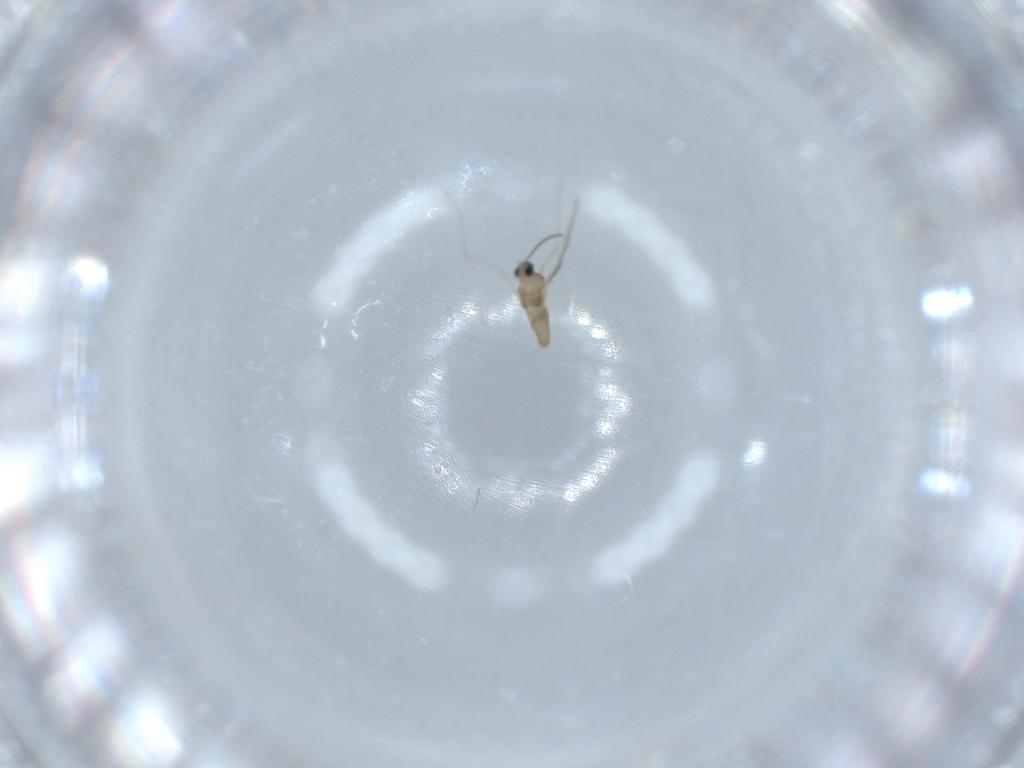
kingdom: Animalia
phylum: Arthropoda
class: Insecta
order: Diptera
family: Cecidomyiidae
